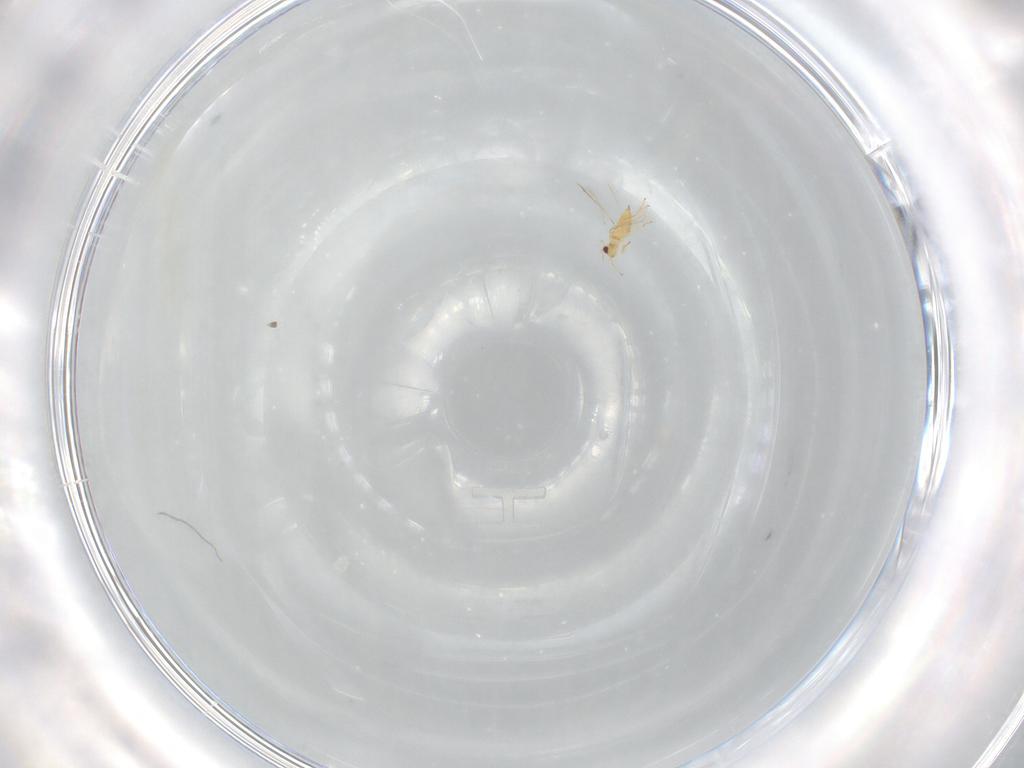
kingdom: Animalia
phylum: Arthropoda
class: Insecta
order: Hymenoptera
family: Mymaridae
